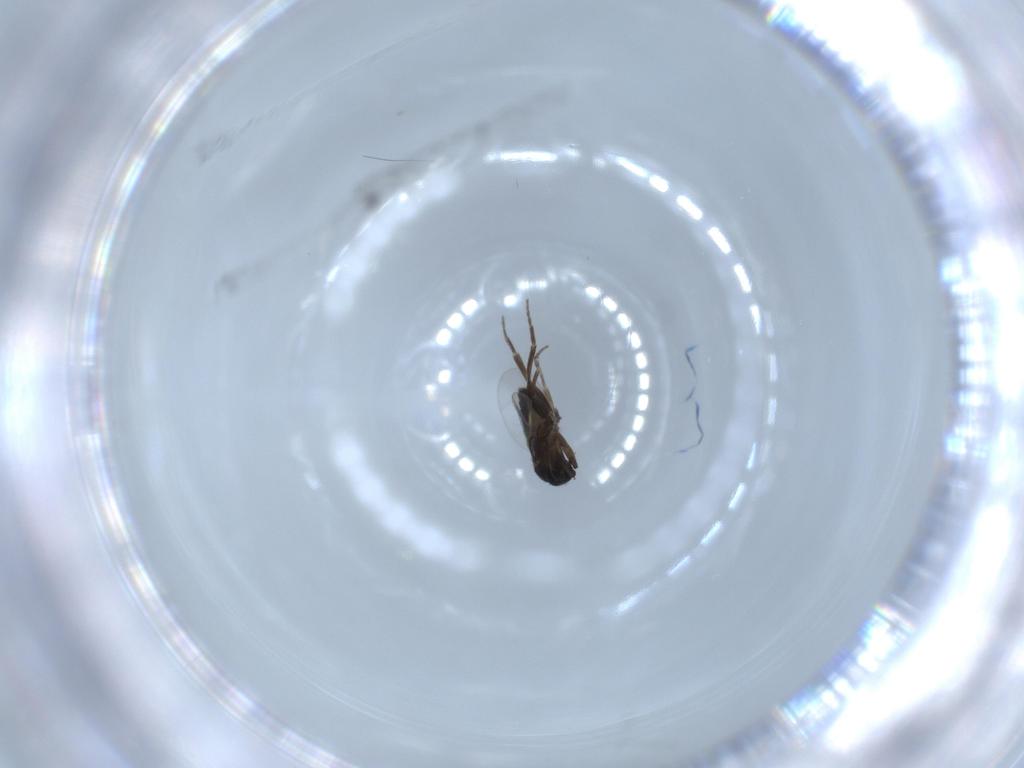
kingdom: Animalia
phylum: Arthropoda
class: Insecta
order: Diptera
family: Phoridae
